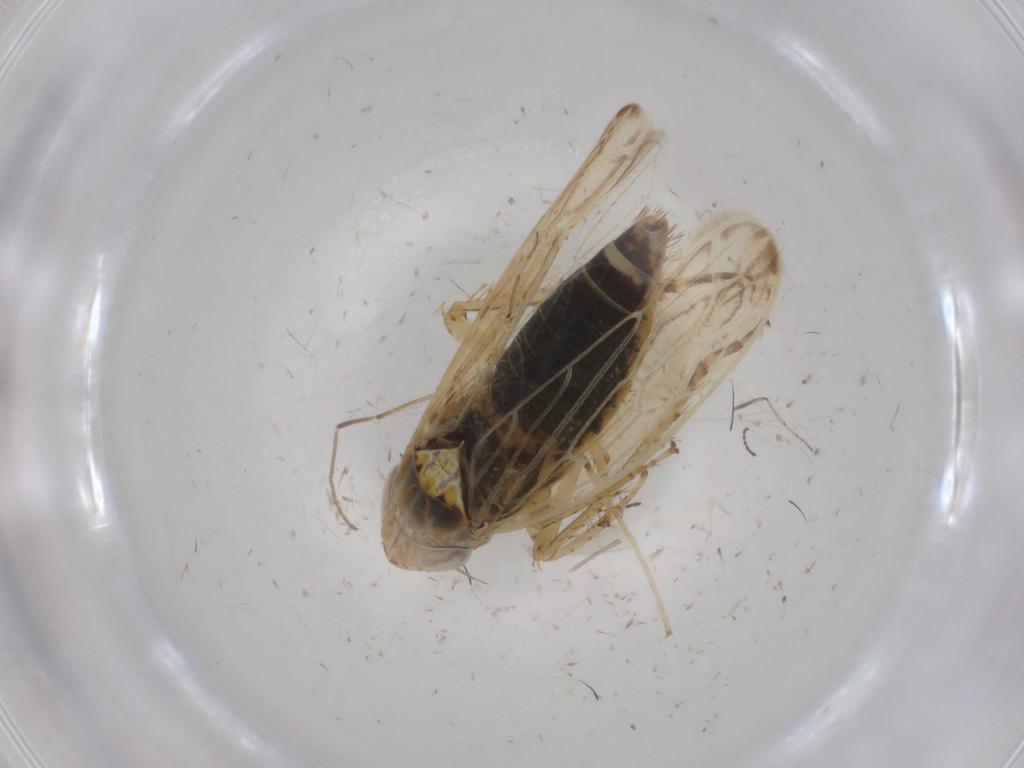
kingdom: Animalia
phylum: Arthropoda
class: Insecta
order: Hemiptera
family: Cicadellidae
